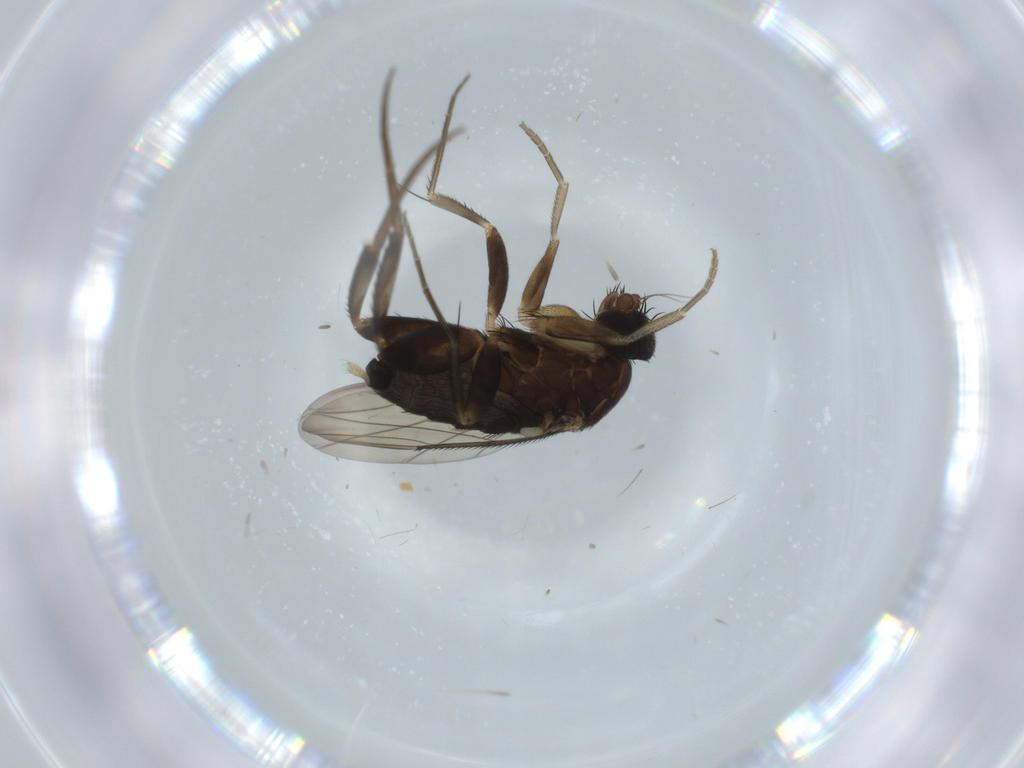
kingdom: Animalia
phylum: Arthropoda
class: Insecta
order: Diptera
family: Phoridae
